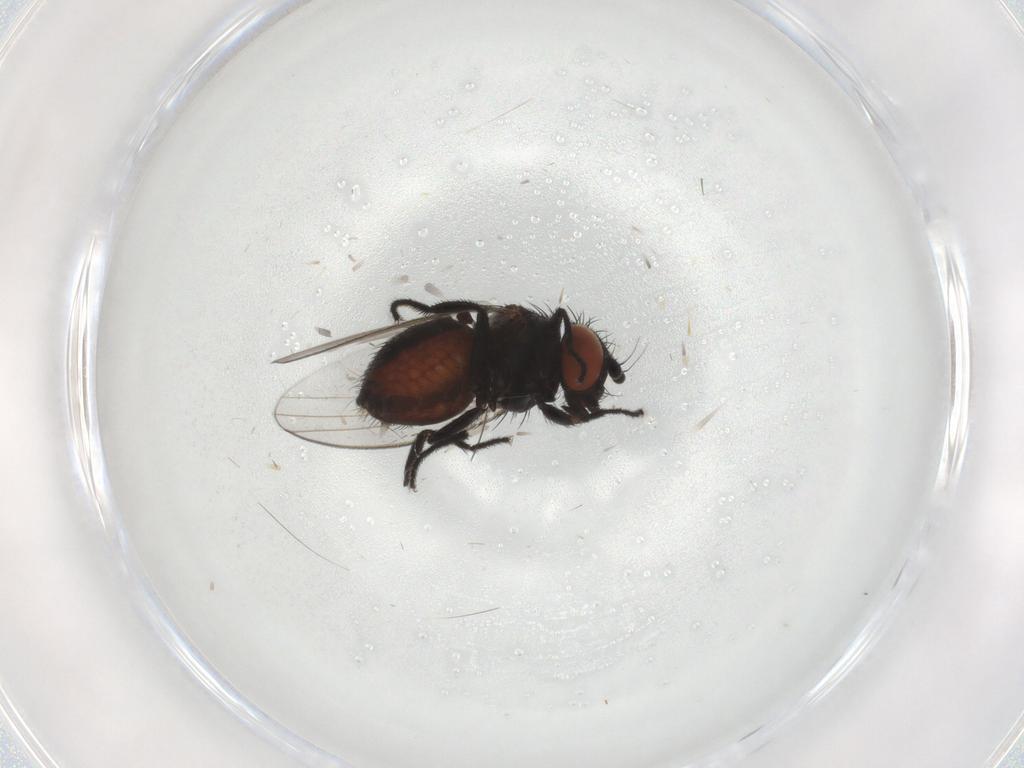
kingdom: Animalia
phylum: Arthropoda
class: Insecta
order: Diptera
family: Milichiidae
